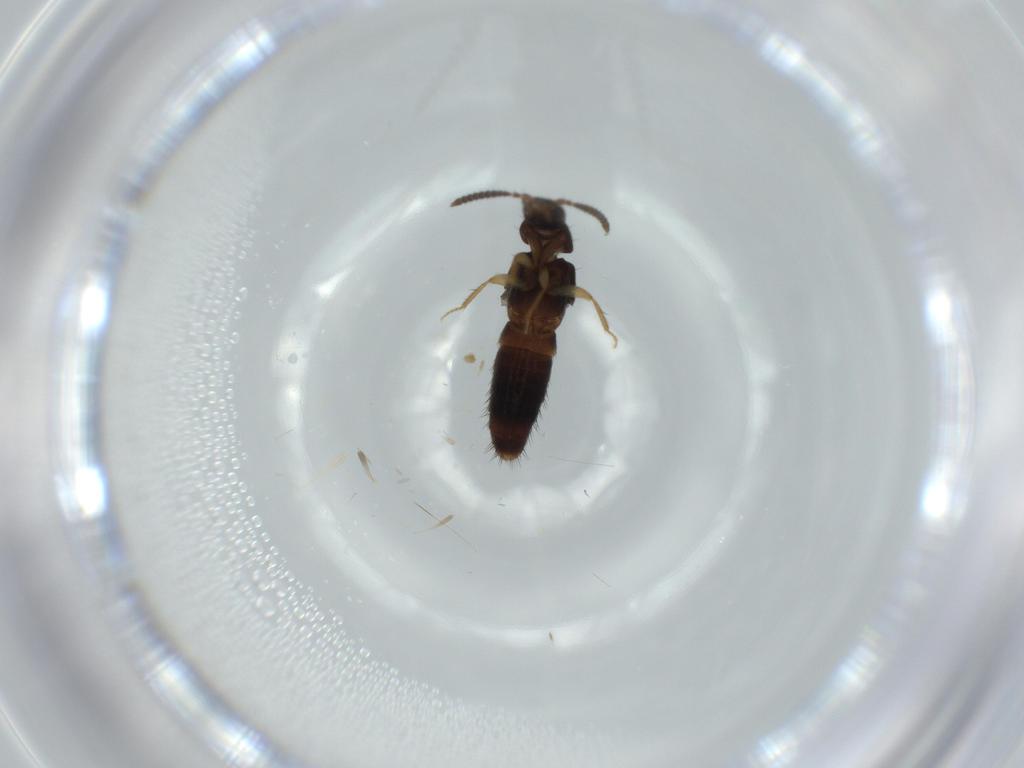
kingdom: Animalia
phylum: Arthropoda
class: Insecta
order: Coleoptera
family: Staphylinidae
